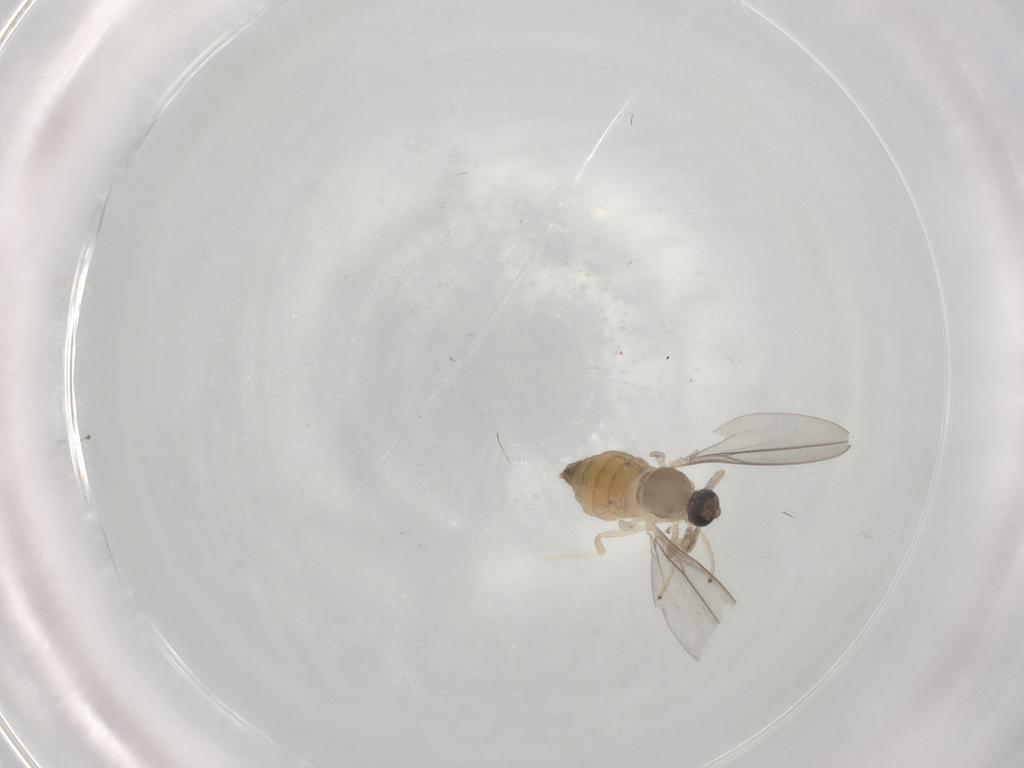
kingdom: Animalia
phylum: Arthropoda
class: Insecta
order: Diptera
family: Cecidomyiidae
